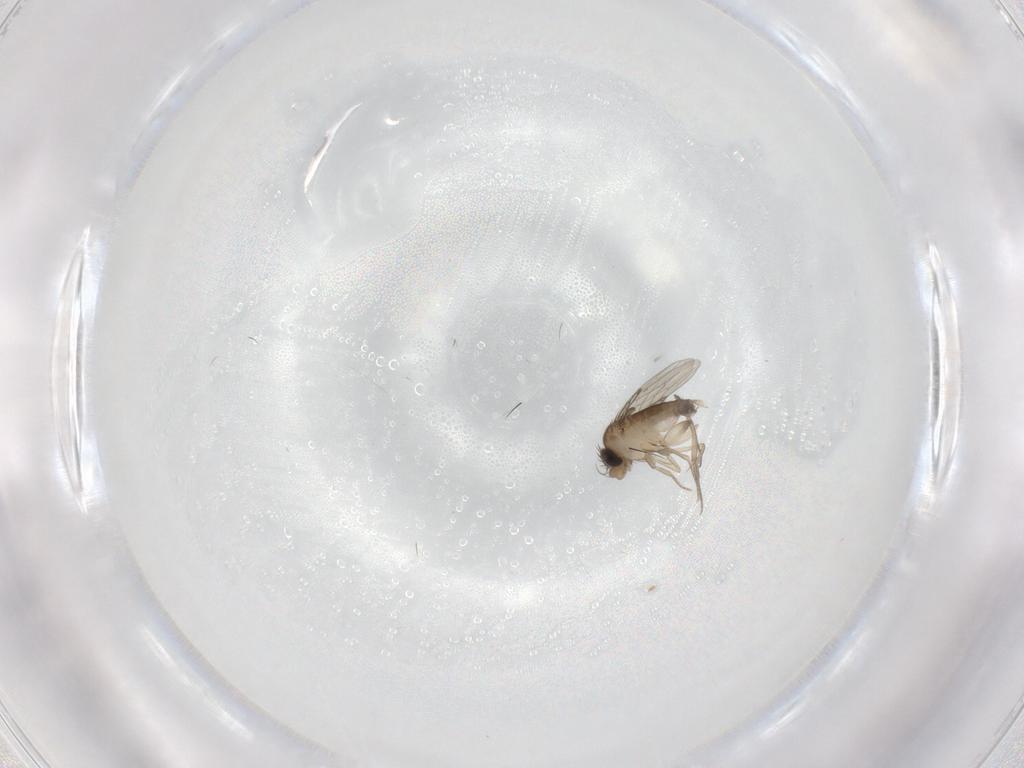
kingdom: Animalia
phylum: Arthropoda
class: Insecta
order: Diptera
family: Phoridae
